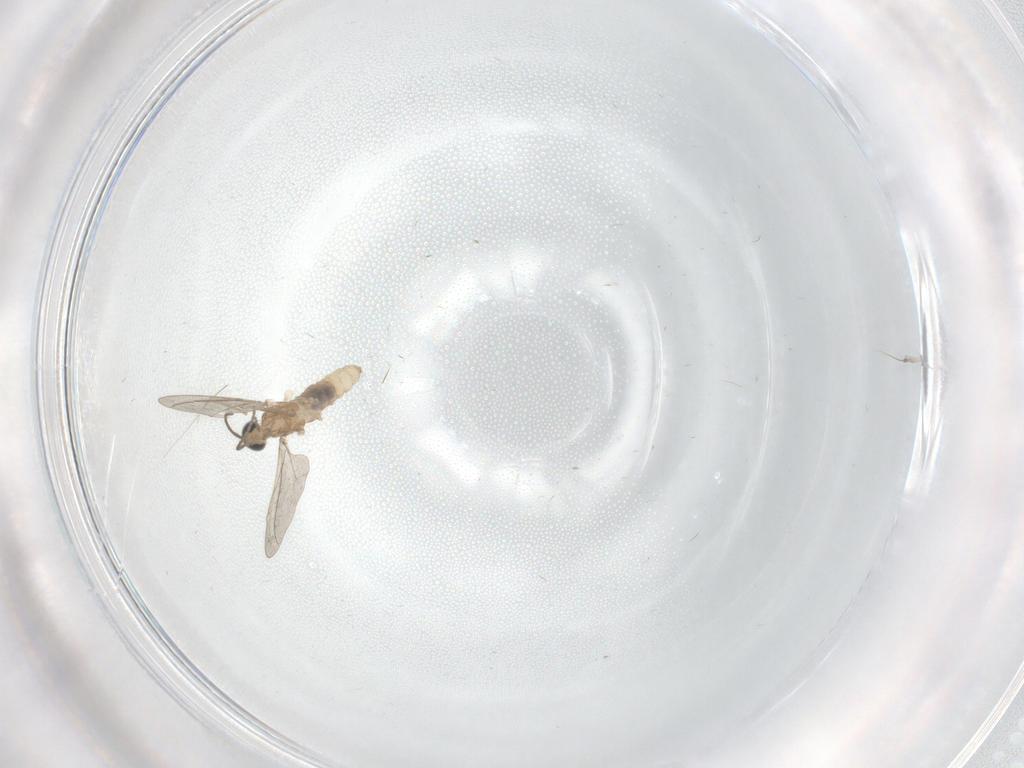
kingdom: Animalia
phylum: Arthropoda
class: Insecta
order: Diptera
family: Cecidomyiidae
